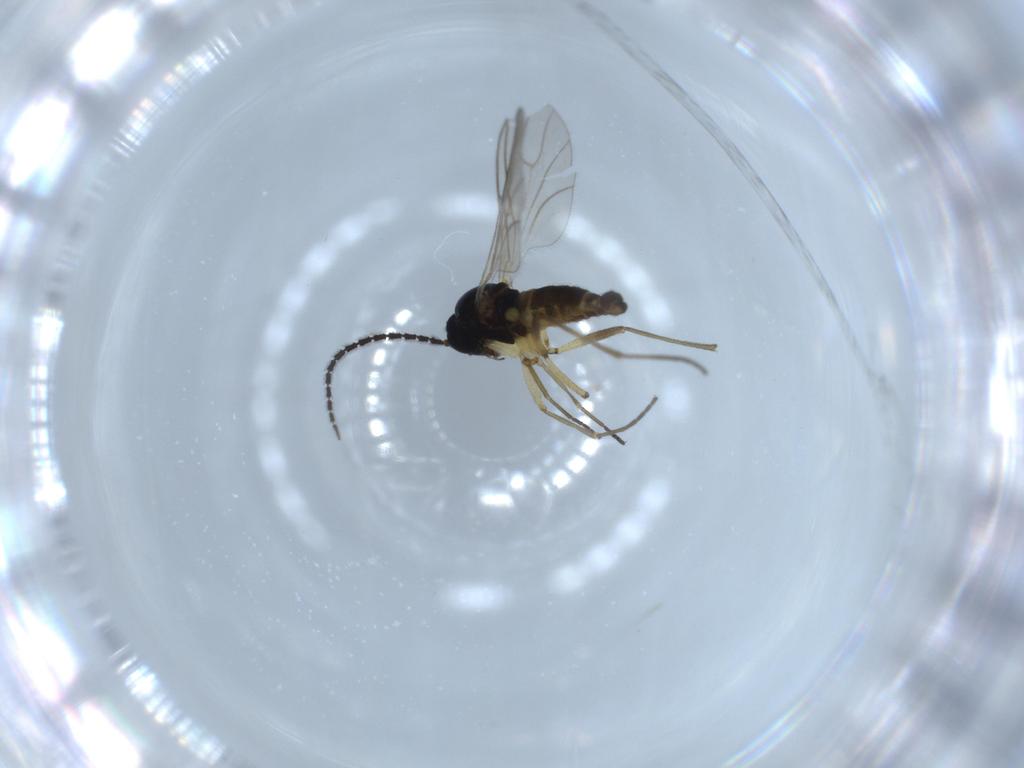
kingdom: Animalia
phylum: Arthropoda
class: Insecta
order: Diptera
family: Sciaridae
